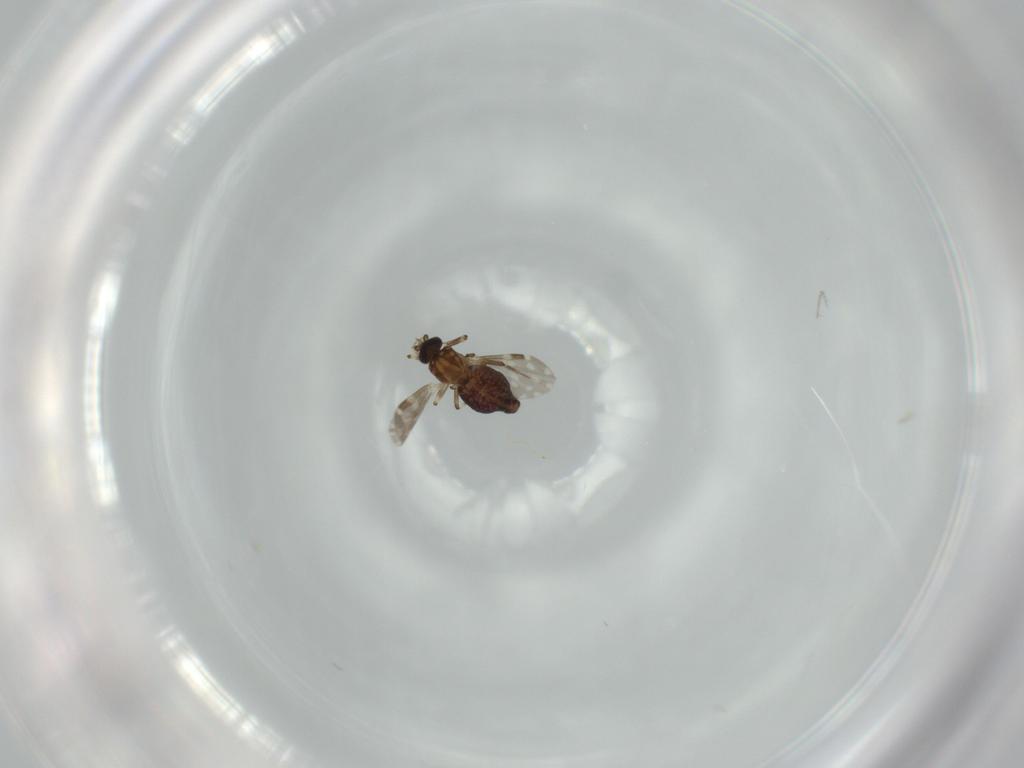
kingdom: Animalia
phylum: Arthropoda
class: Insecta
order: Diptera
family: Ceratopogonidae
